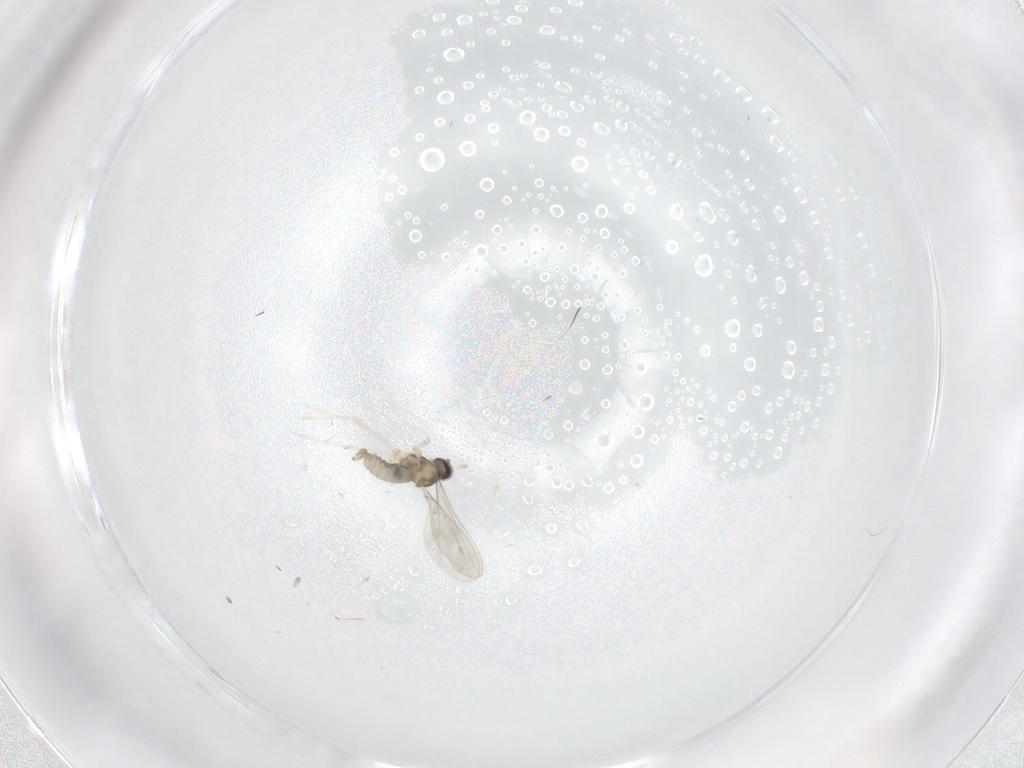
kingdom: Animalia
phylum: Arthropoda
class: Insecta
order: Diptera
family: Cecidomyiidae
